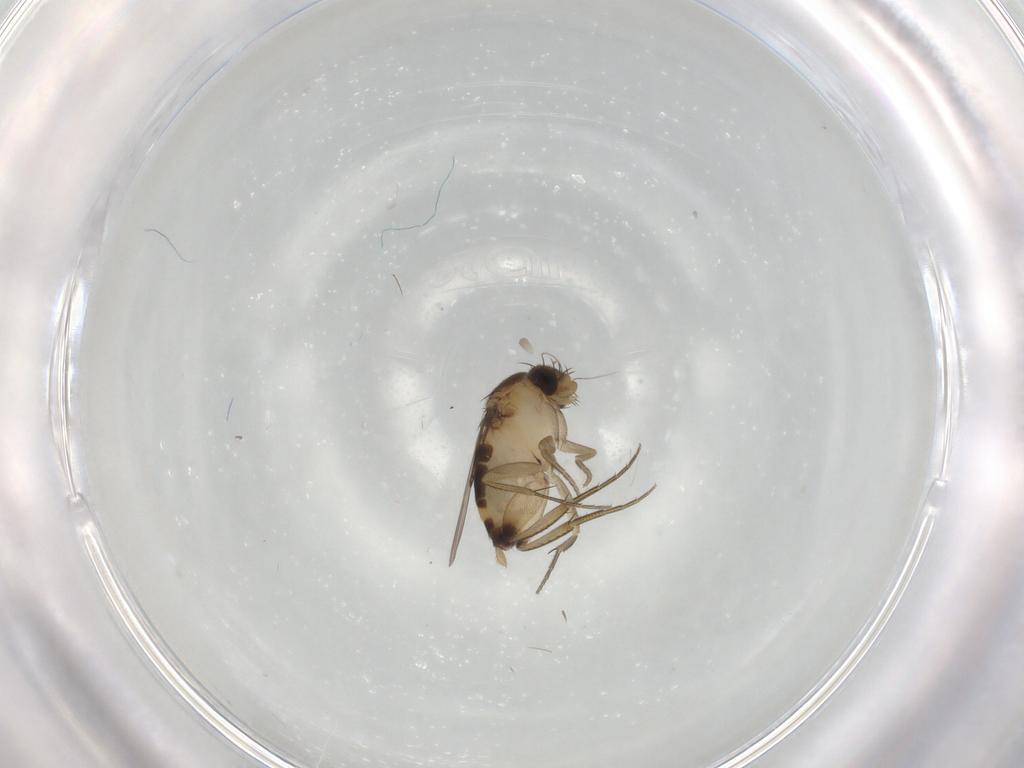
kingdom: Animalia
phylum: Arthropoda
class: Insecta
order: Diptera
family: Phoridae
